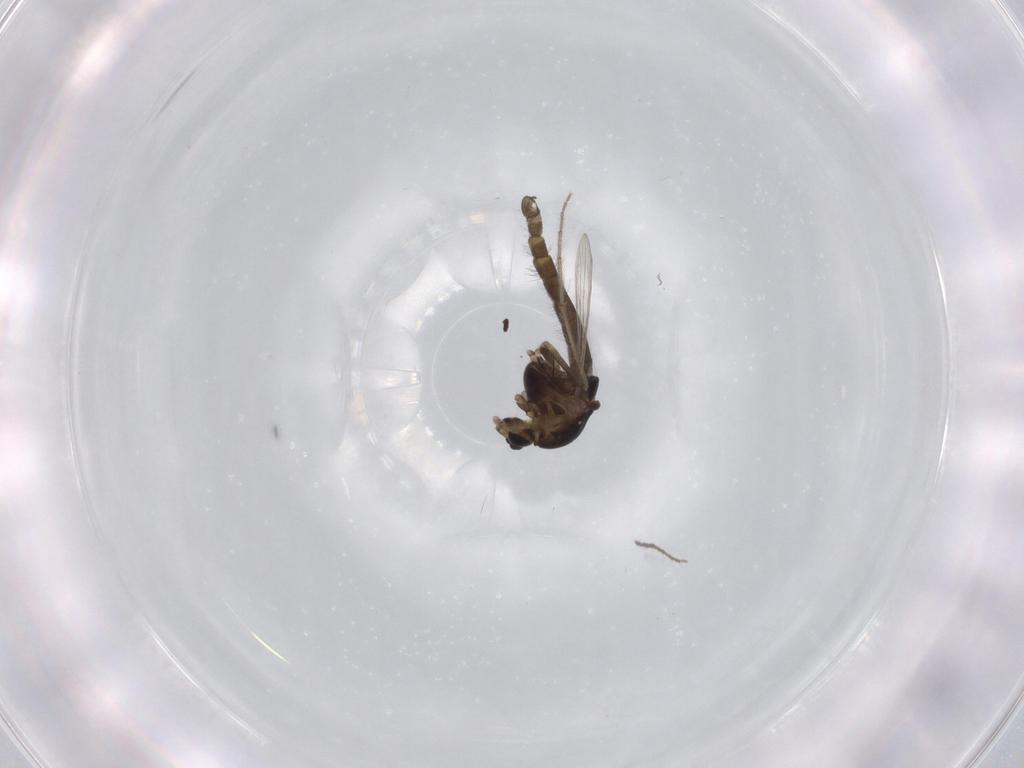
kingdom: Animalia
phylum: Arthropoda
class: Insecta
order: Diptera
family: Chironomidae
